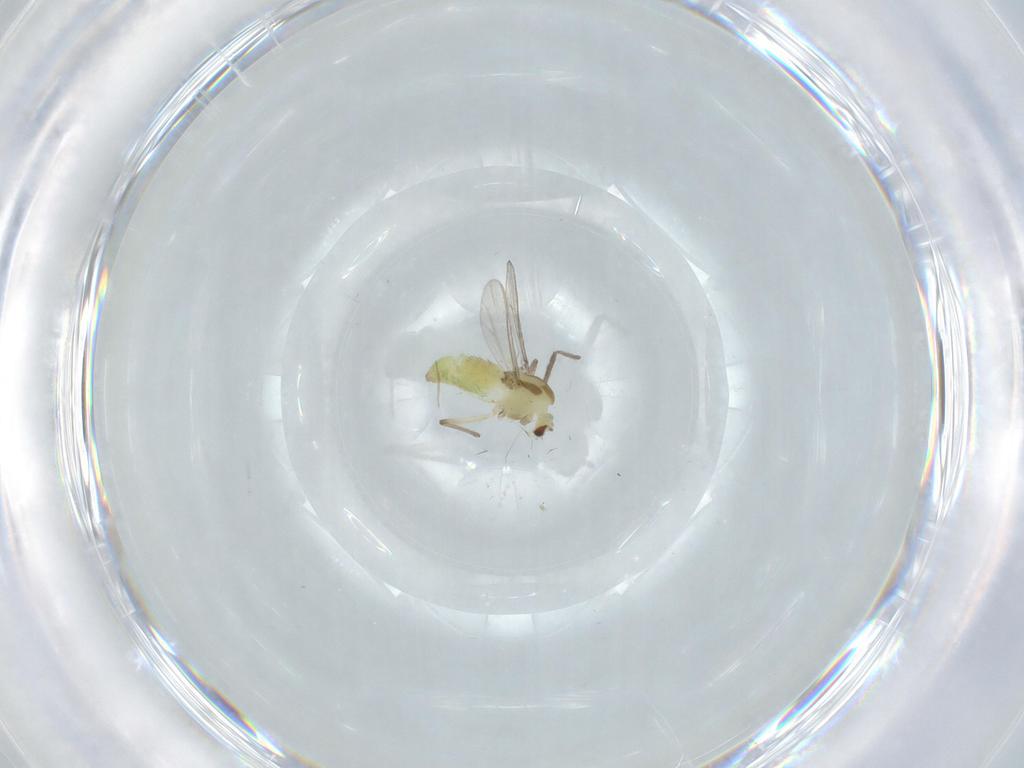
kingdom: Animalia
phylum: Arthropoda
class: Insecta
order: Diptera
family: Chironomidae
